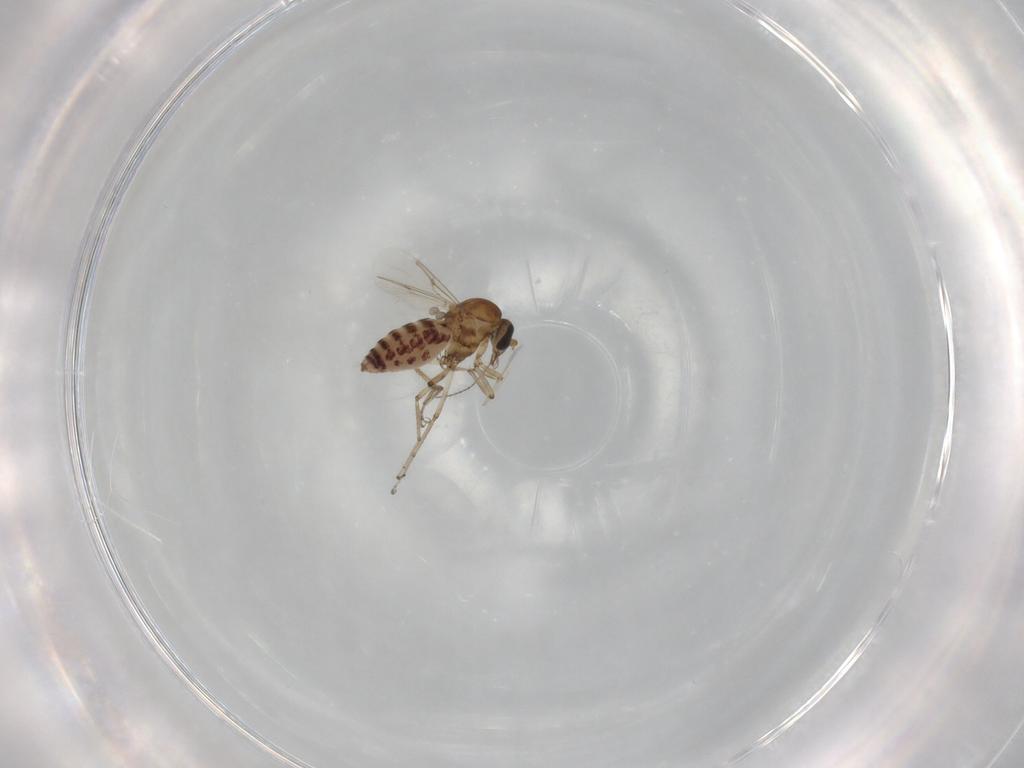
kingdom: Animalia
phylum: Arthropoda
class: Insecta
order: Diptera
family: Ceratopogonidae
